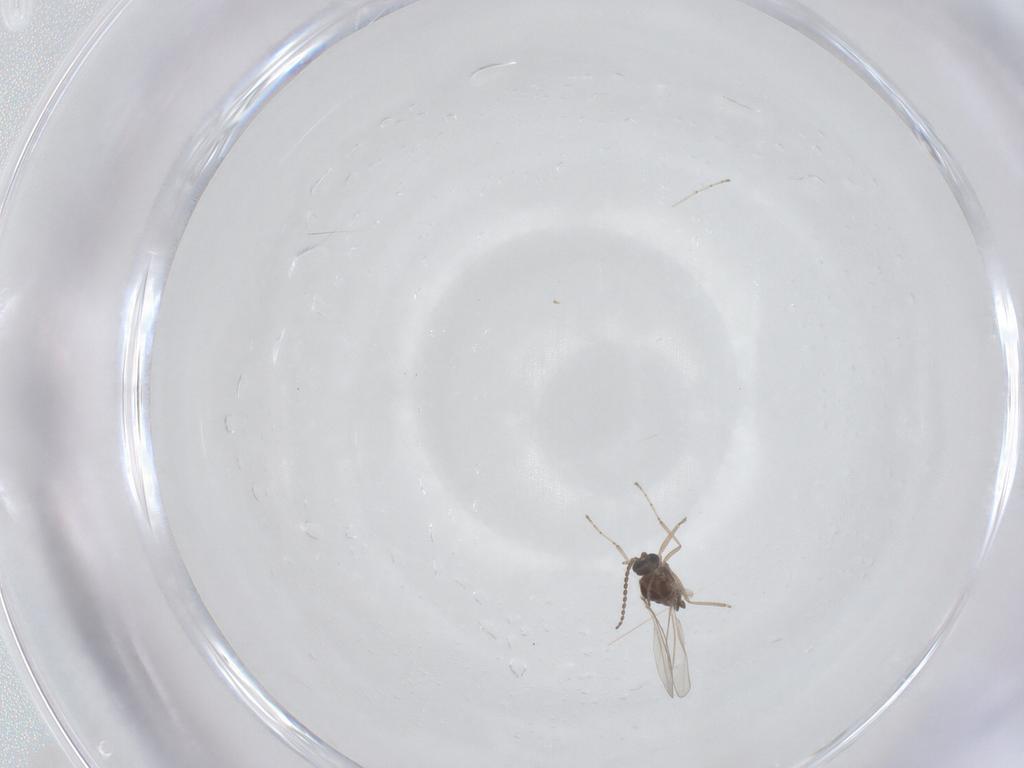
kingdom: Animalia
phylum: Arthropoda
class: Insecta
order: Diptera
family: Cecidomyiidae
